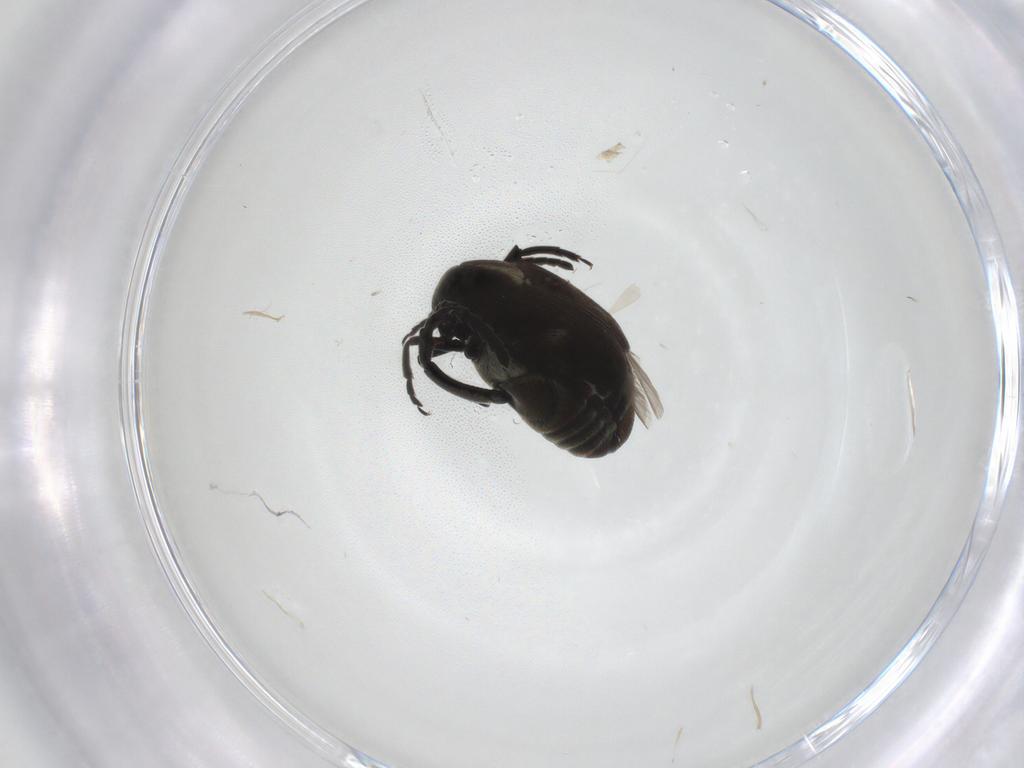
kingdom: Animalia
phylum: Arthropoda
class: Insecta
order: Coleoptera
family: Chrysomelidae
